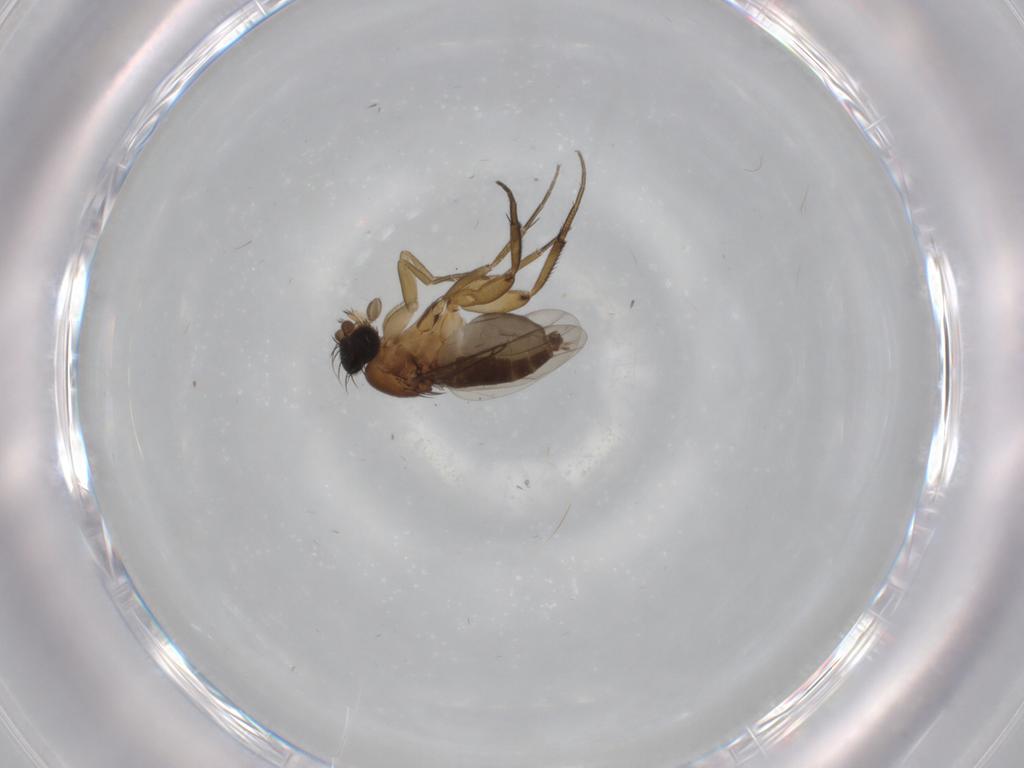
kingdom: Animalia
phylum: Arthropoda
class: Insecta
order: Diptera
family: Phoridae
